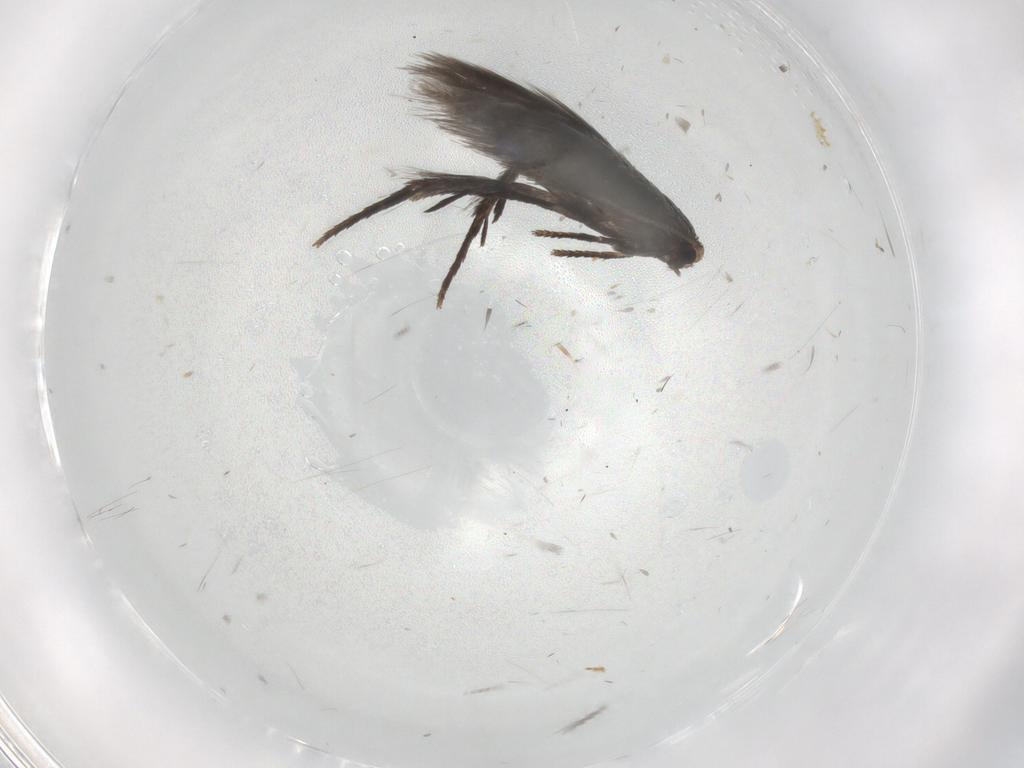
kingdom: Animalia
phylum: Arthropoda
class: Insecta
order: Lepidoptera
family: Nepticulidae
